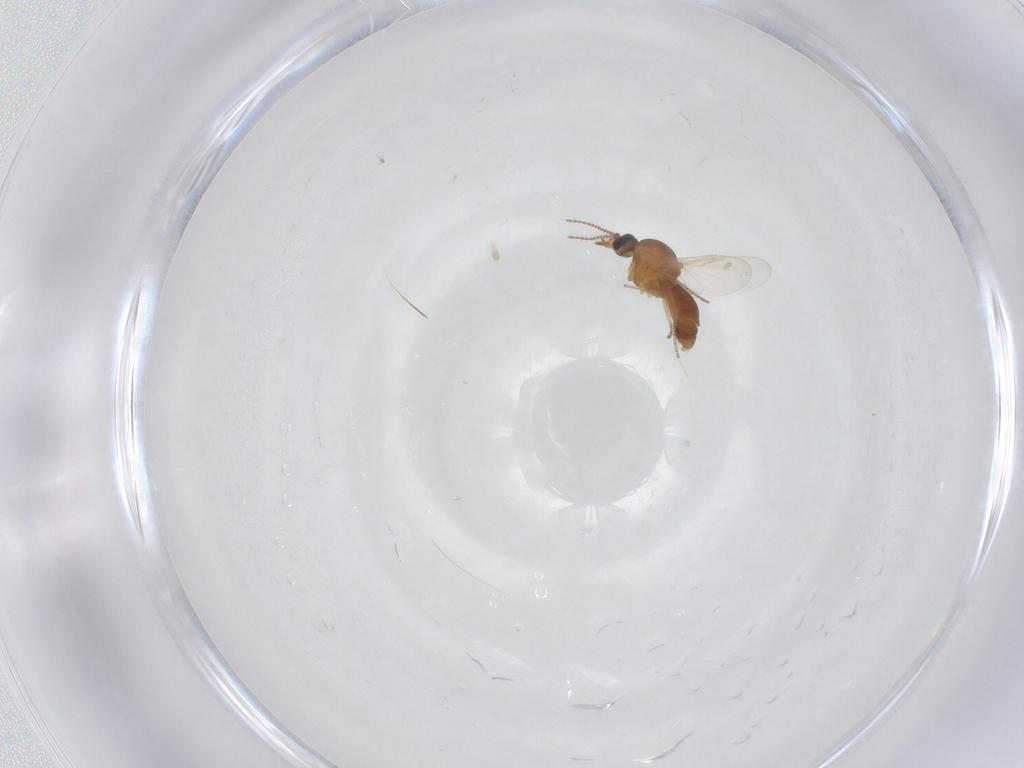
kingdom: Animalia
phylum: Arthropoda
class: Insecta
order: Diptera
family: Ceratopogonidae
